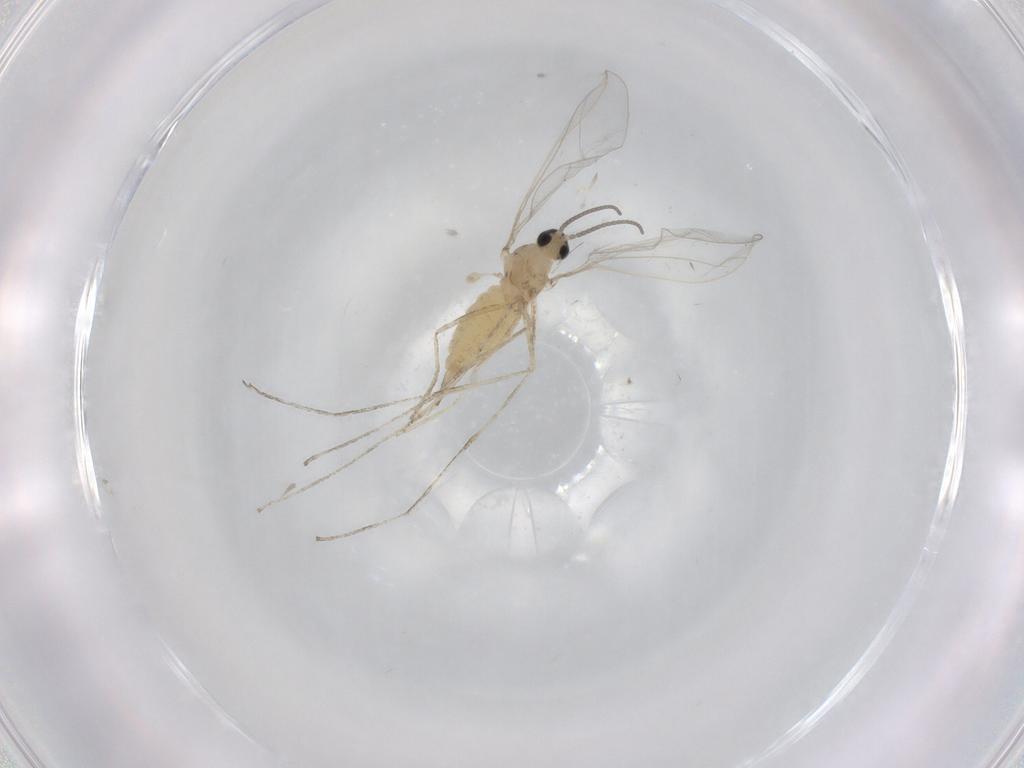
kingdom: Animalia
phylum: Arthropoda
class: Insecta
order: Diptera
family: Mycetophilidae
